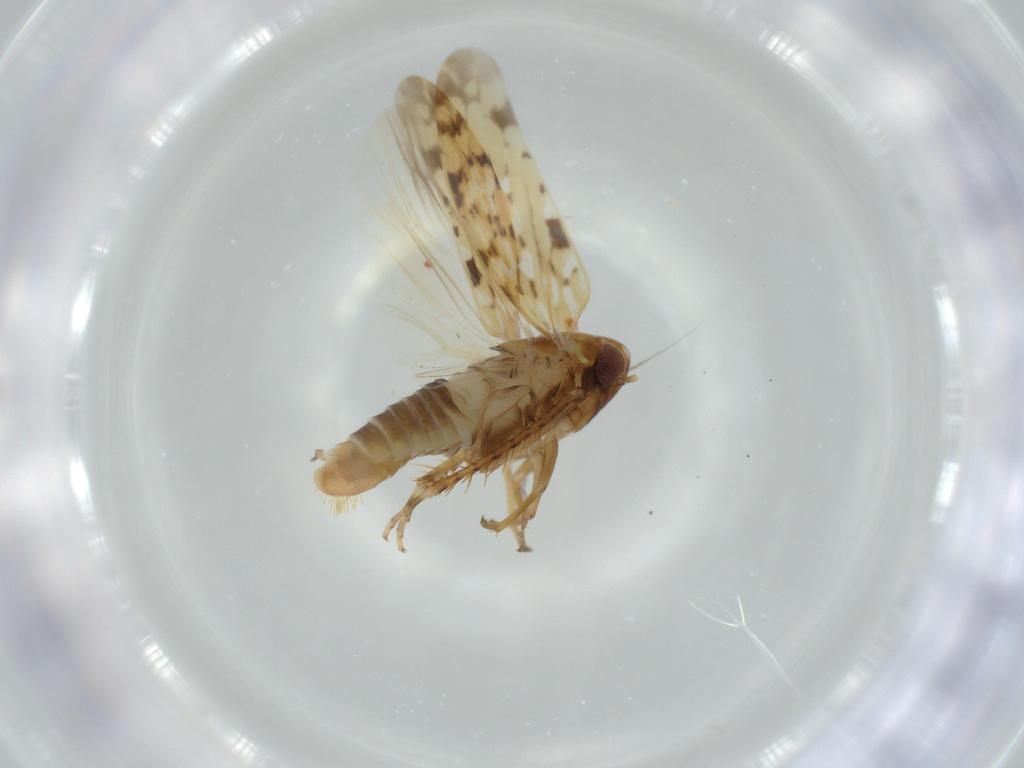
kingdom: Animalia
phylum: Arthropoda
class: Insecta
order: Hemiptera
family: Cicadellidae
